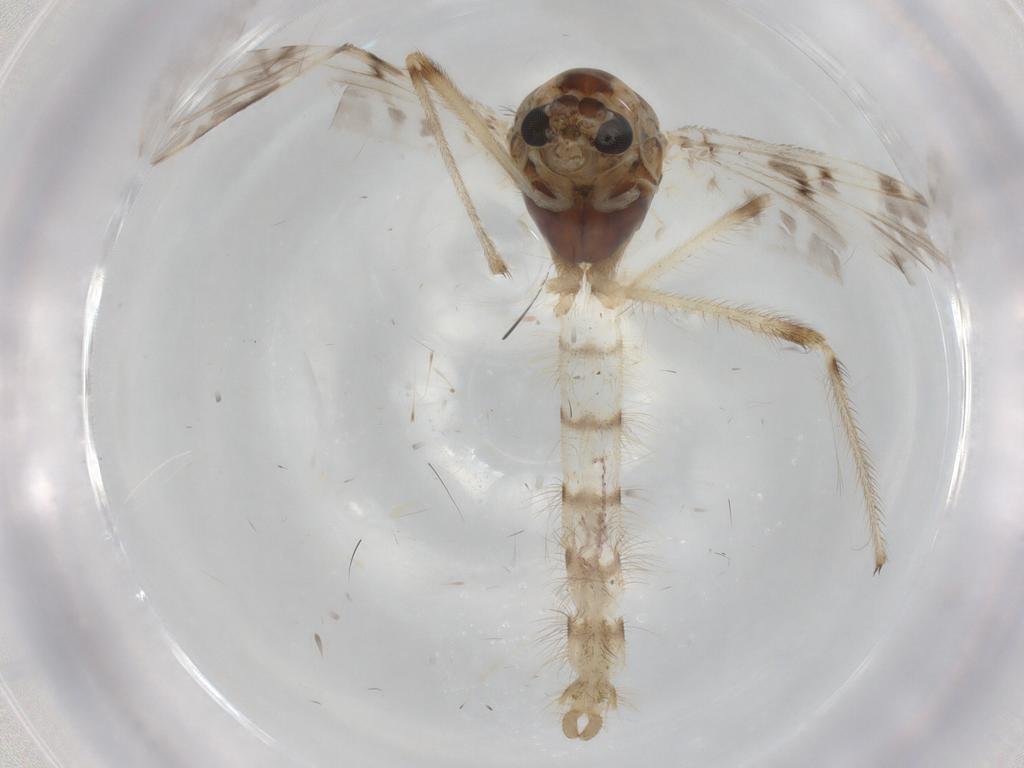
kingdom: Animalia
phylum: Arthropoda
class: Insecta
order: Diptera
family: Chironomidae
